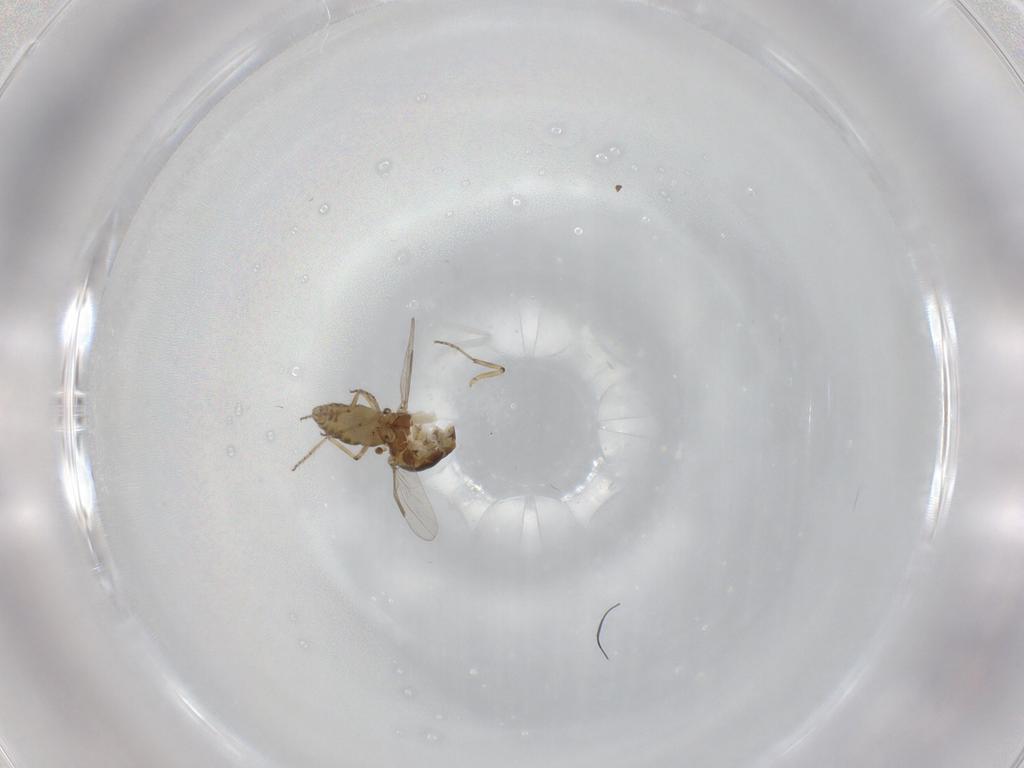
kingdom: Animalia
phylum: Arthropoda
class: Insecta
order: Diptera
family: Ceratopogonidae
